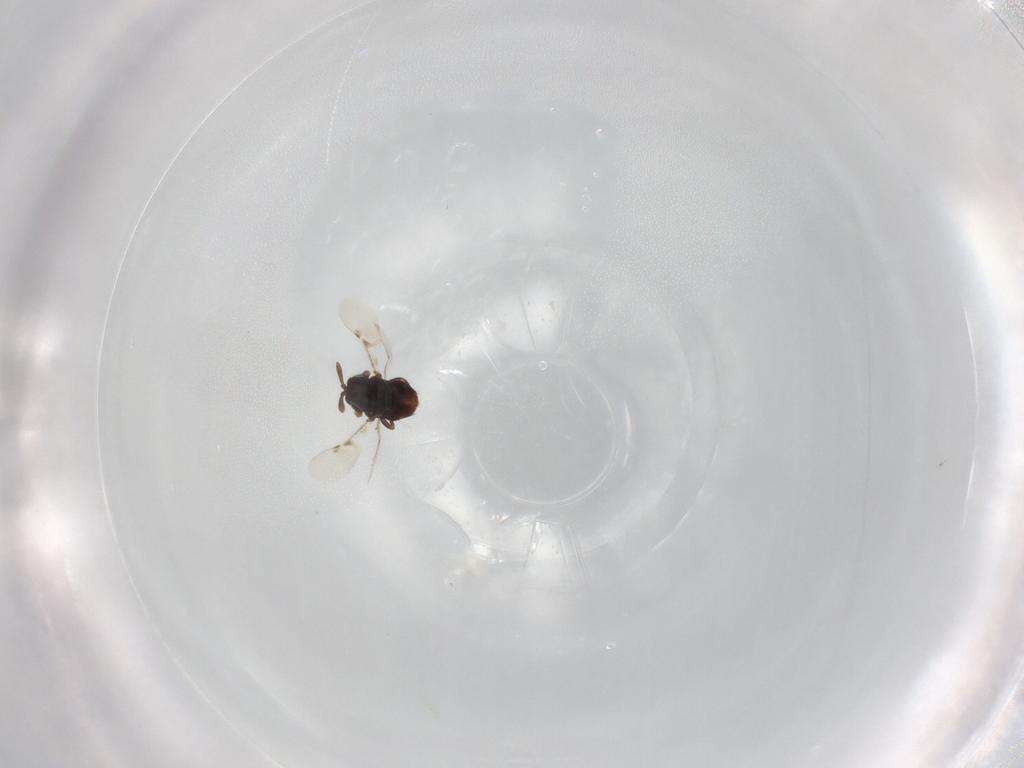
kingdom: Animalia
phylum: Arthropoda
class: Insecta
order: Hymenoptera
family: Encyrtidae
